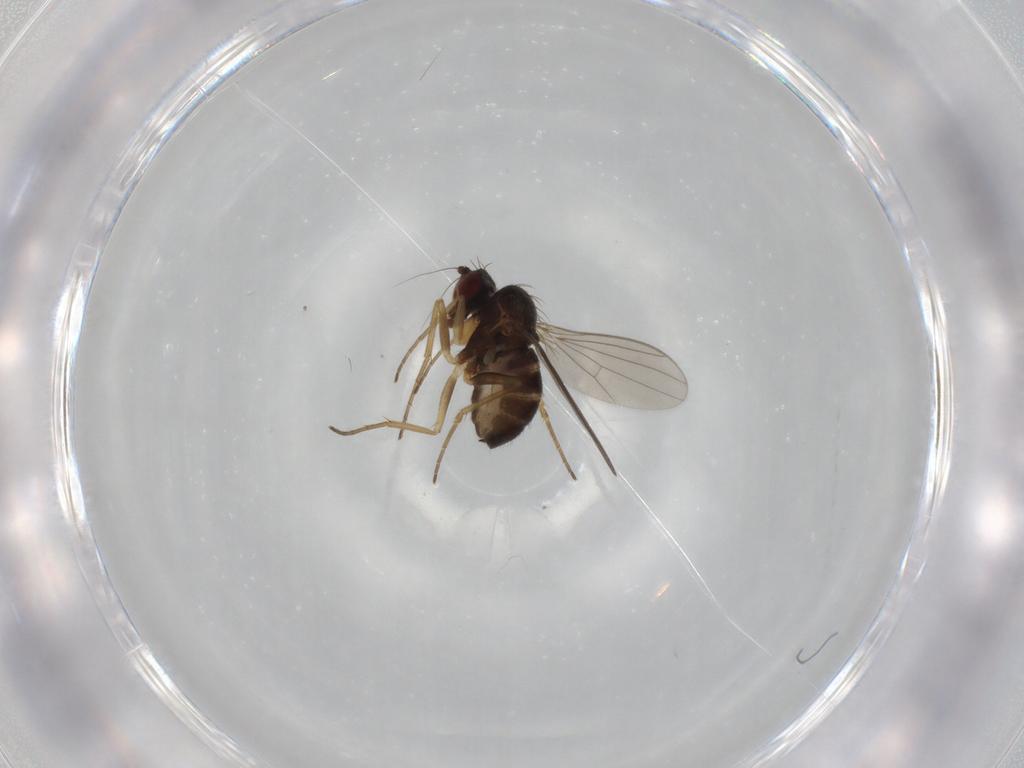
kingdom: Animalia
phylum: Arthropoda
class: Insecta
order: Diptera
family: Dolichopodidae
